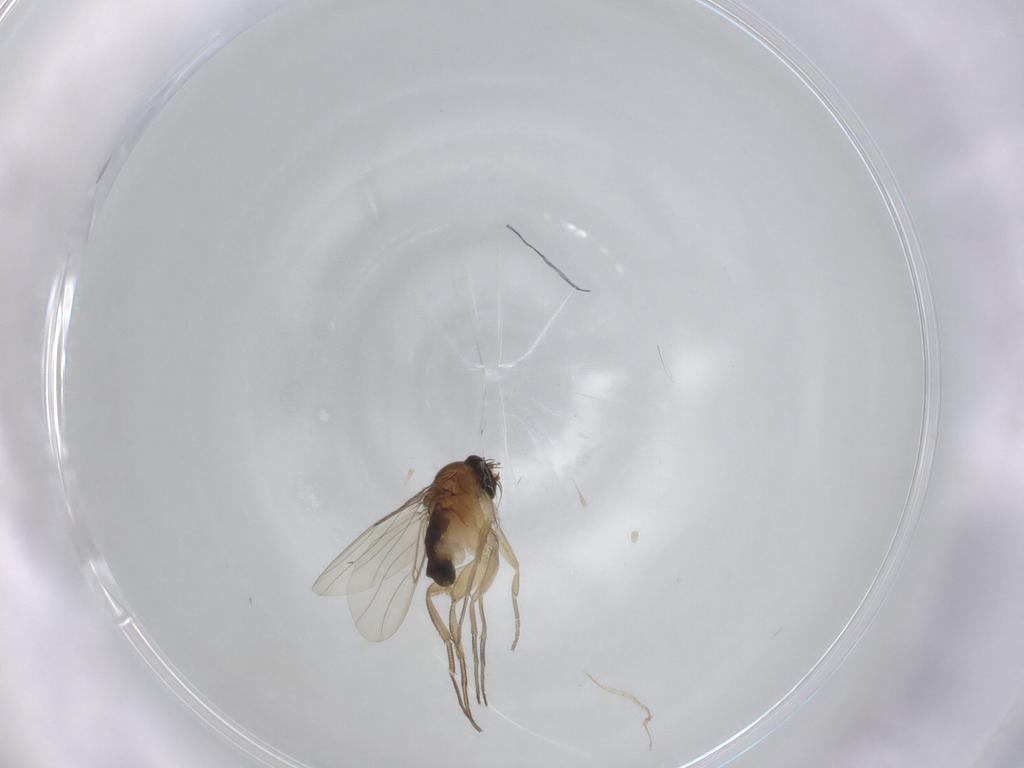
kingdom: Animalia
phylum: Arthropoda
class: Insecta
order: Diptera
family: Phoridae
